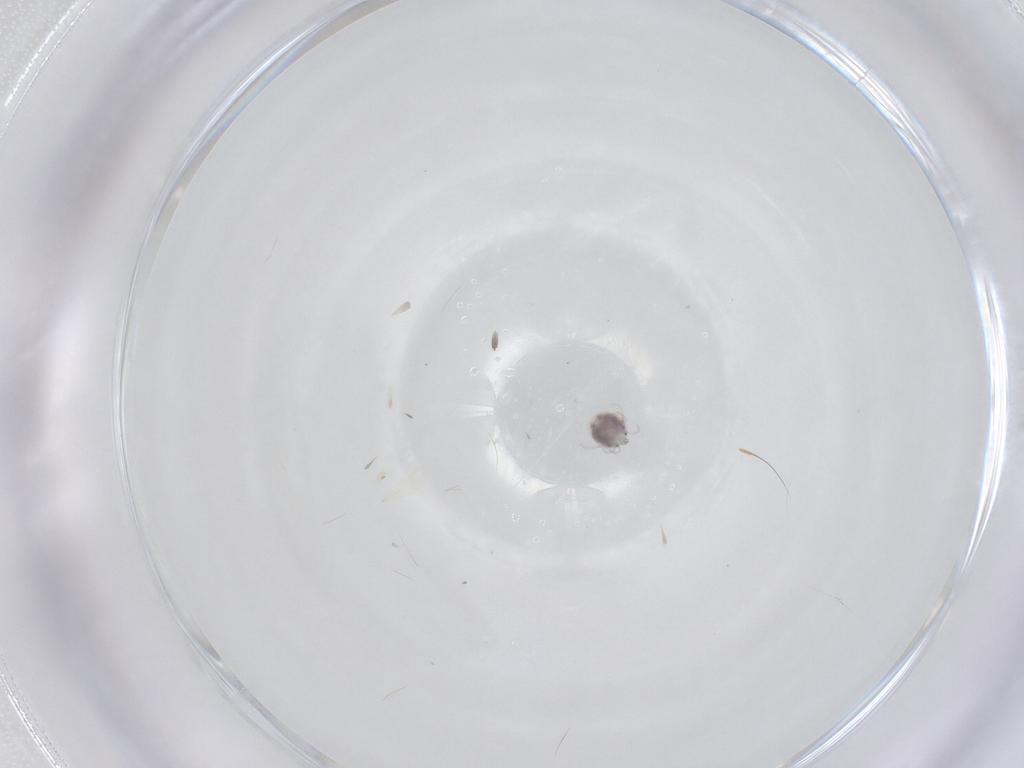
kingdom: Animalia
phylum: Arthropoda
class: Arachnida
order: Trombidiformes
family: Pionidae
